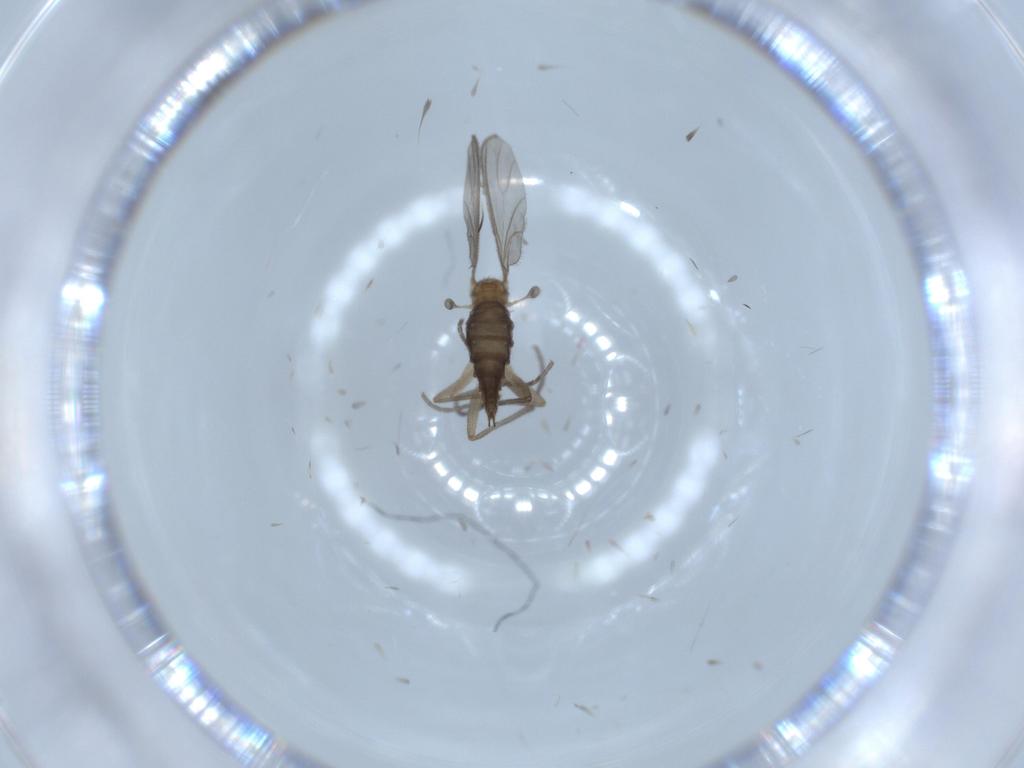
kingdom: Animalia
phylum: Arthropoda
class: Insecta
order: Diptera
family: Sciaridae
